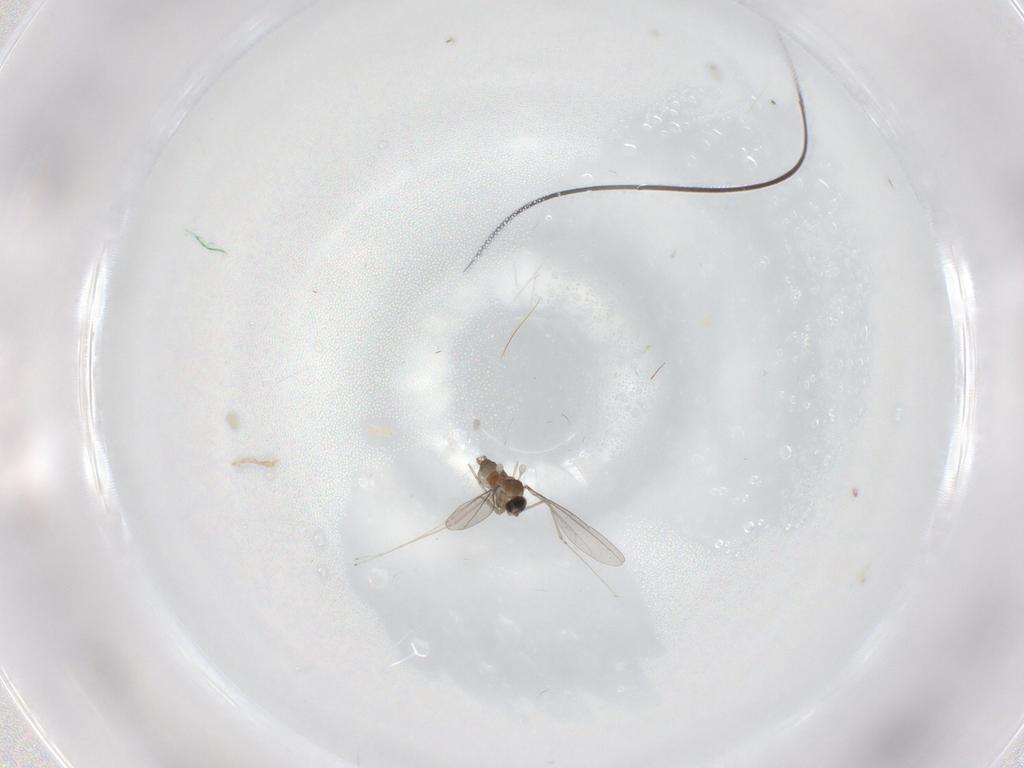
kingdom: Animalia
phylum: Arthropoda
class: Insecta
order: Diptera
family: Cecidomyiidae
